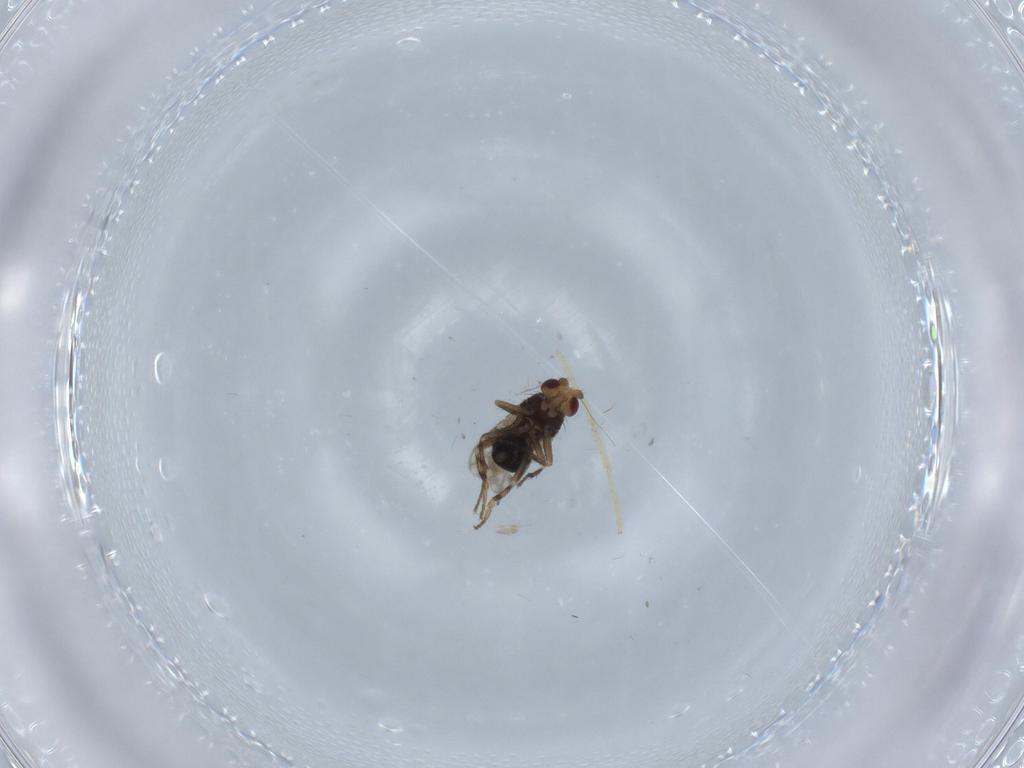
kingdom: Animalia
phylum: Arthropoda
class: Insecta
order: Diptera
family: Sphaeroceridae
